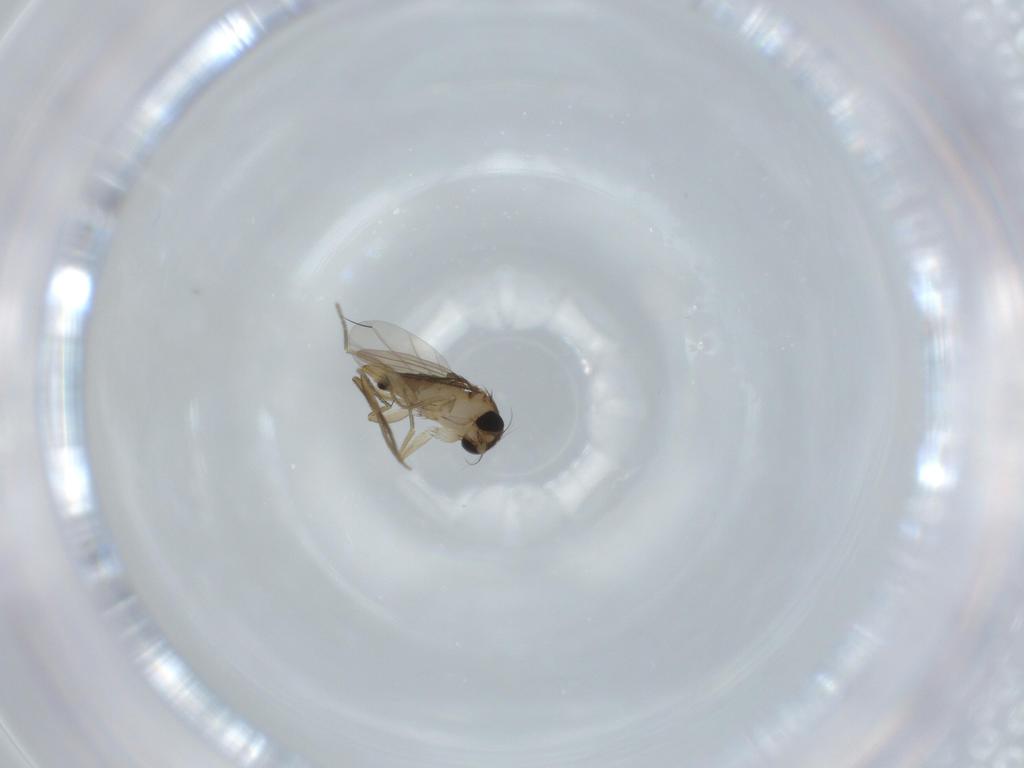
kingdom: Animalia
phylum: Arthropoda
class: Insecta
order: Diptera
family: Phoridae
